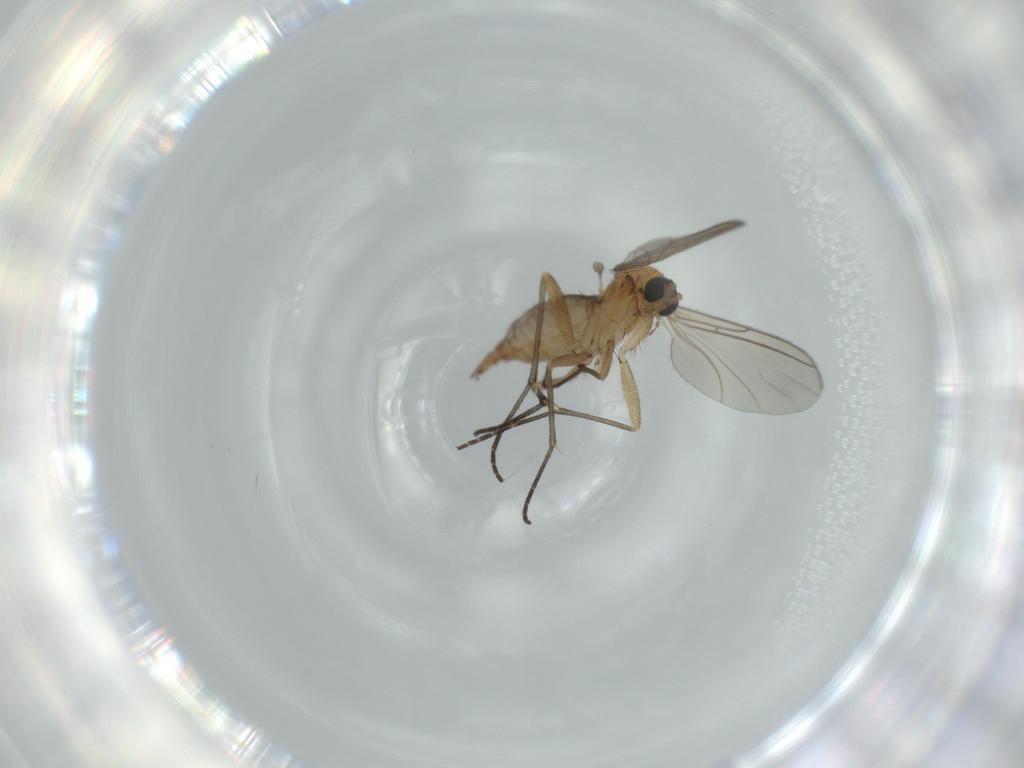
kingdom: Animalia
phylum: Arthropoda
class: Insecta
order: Diptera
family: Sciaridae
